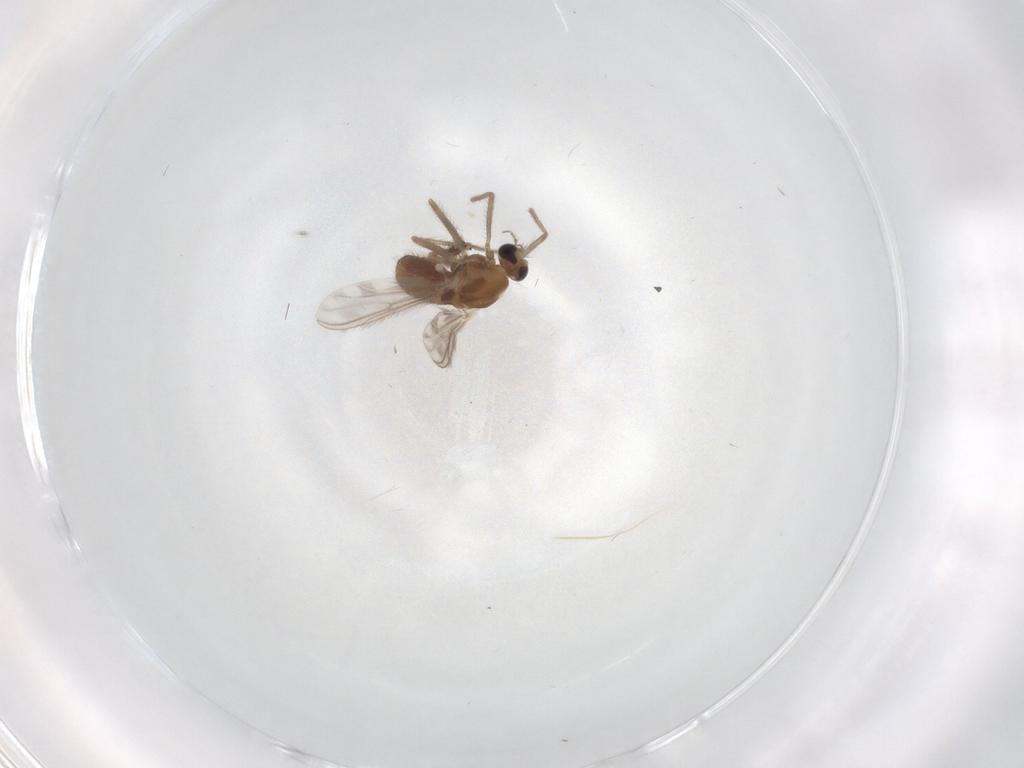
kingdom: Animalia
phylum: Arthropoda
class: Insecta
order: Diptera
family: Chironomidae
